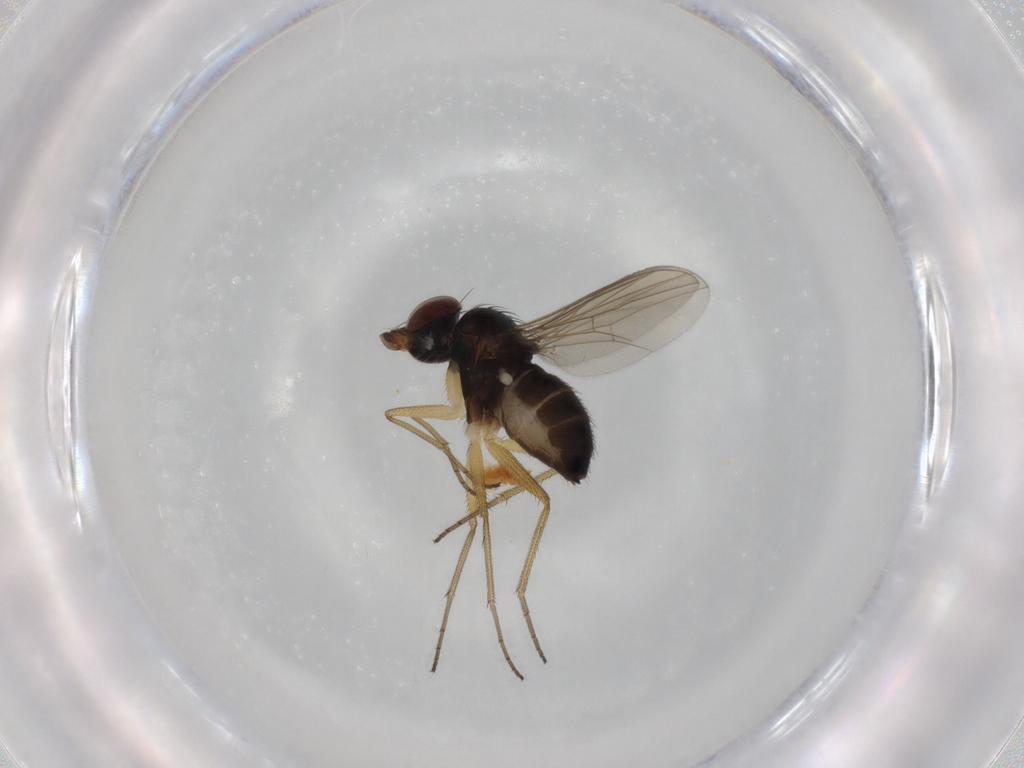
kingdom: Animalia
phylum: Arthropoda
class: Insecta
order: Diptera
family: Dolichopodidae
